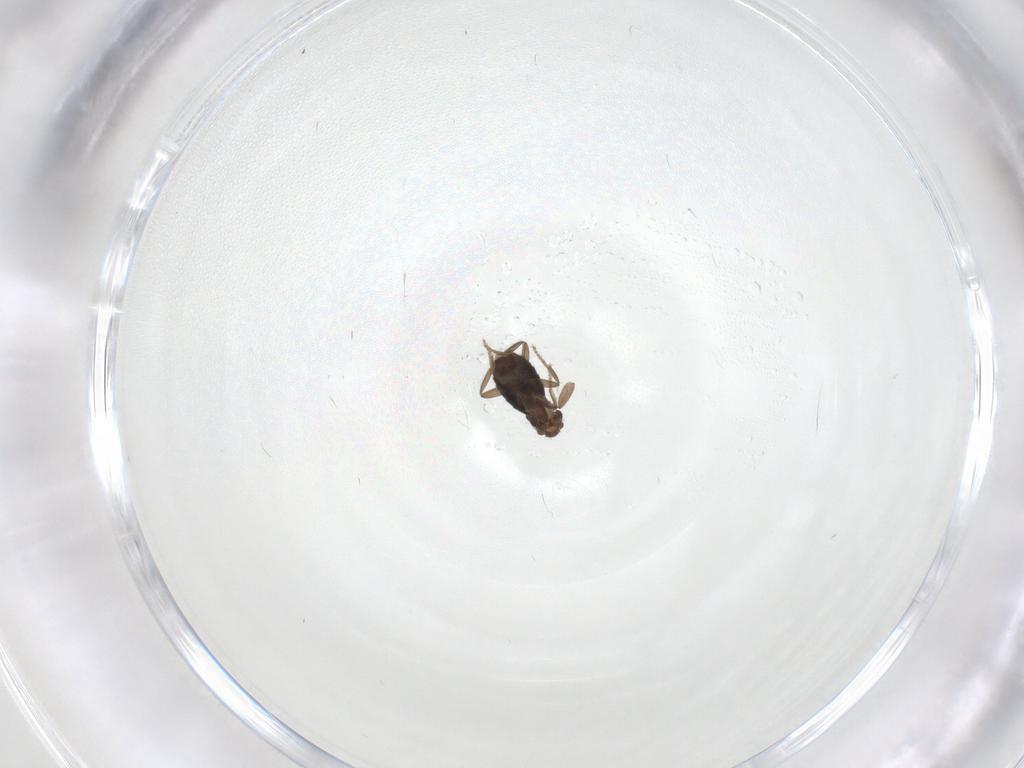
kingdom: Animalia
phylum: Arthropoda
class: Insecta
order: Diptera
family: Phoridae
